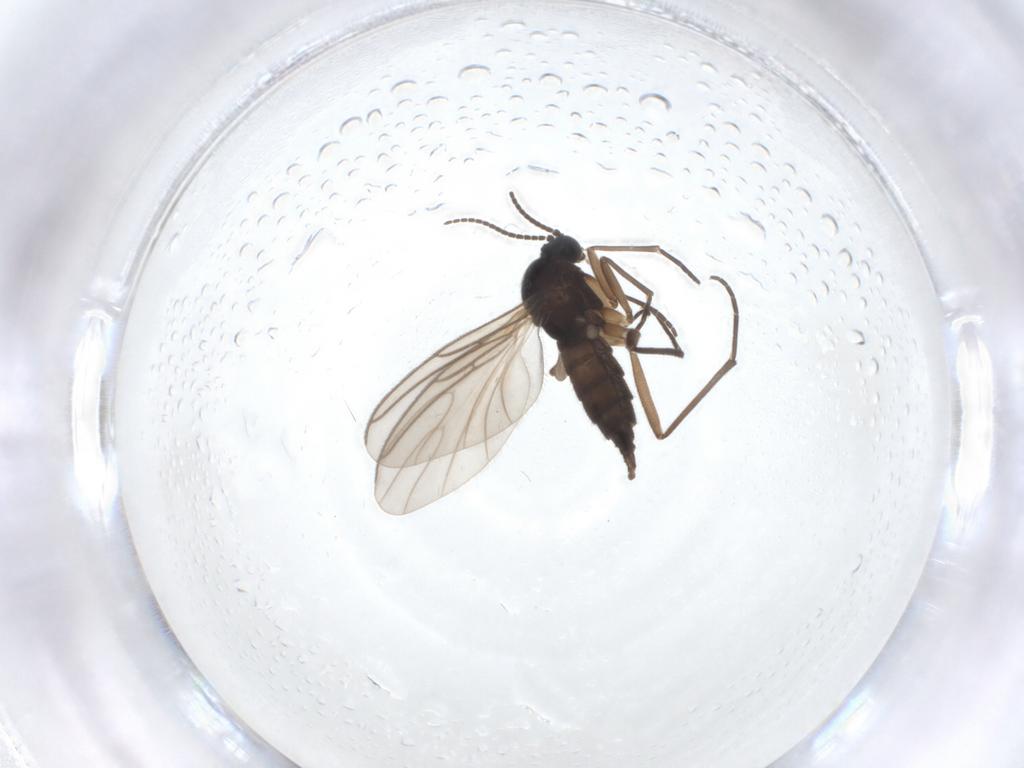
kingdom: Animalia
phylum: Arthropoda
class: Insecta
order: Diptera
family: Sciaridae
